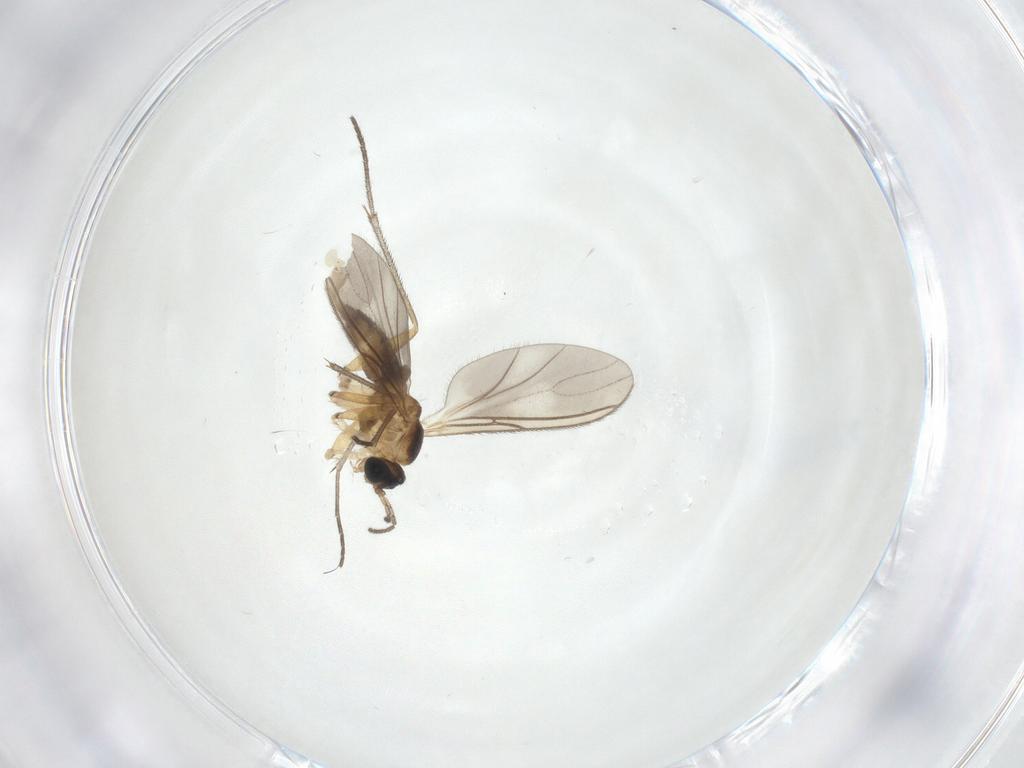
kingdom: Animalia
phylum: Arthropoda
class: Insecta
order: Diptera
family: Sciaridae
